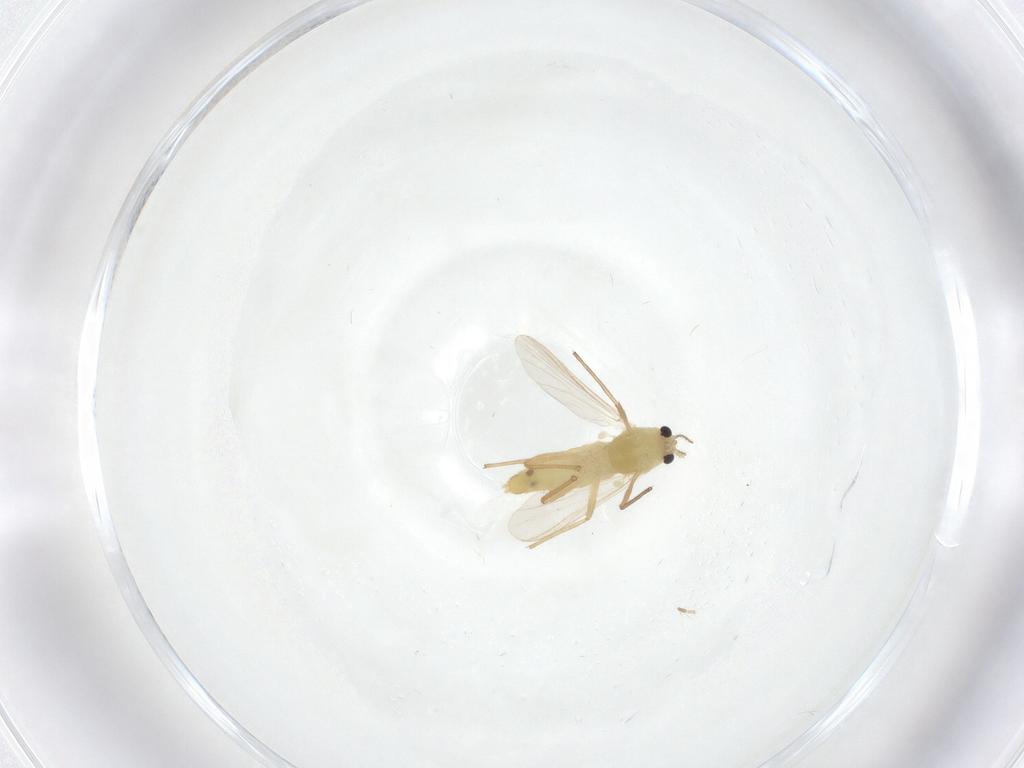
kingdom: Animalia
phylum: Arthropoda
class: Insecta
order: Diptera
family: Chironomidae
